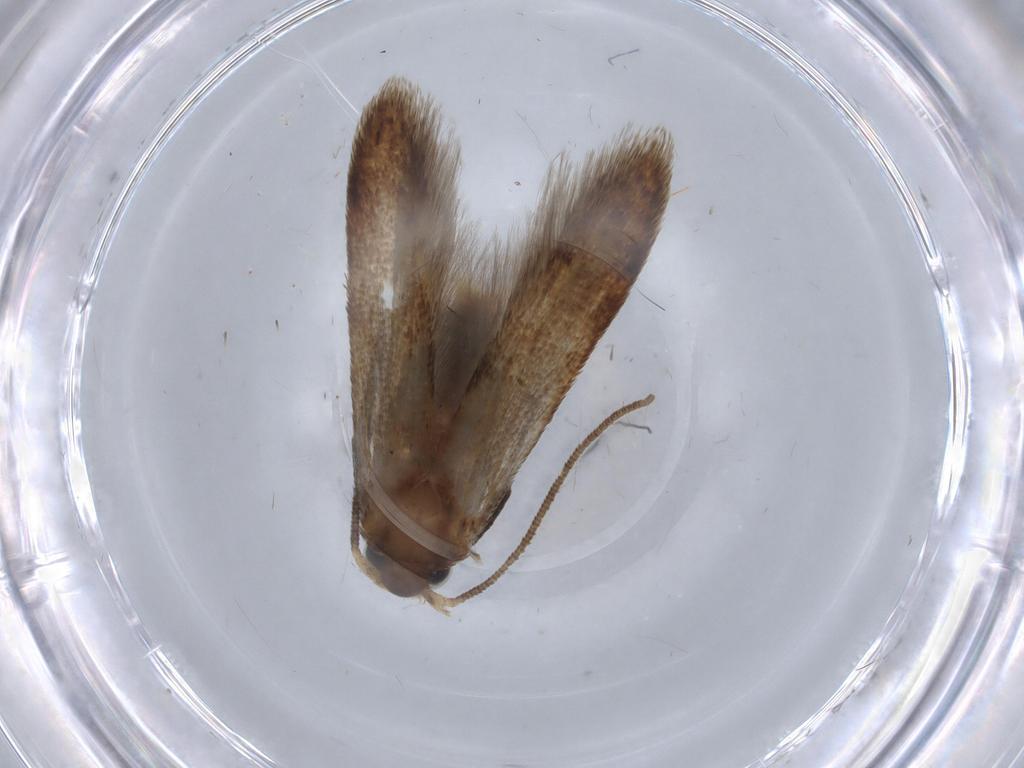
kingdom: Animalia
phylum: Arthropoda
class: Insecta
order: Lepidoptera
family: Blastobasidae
